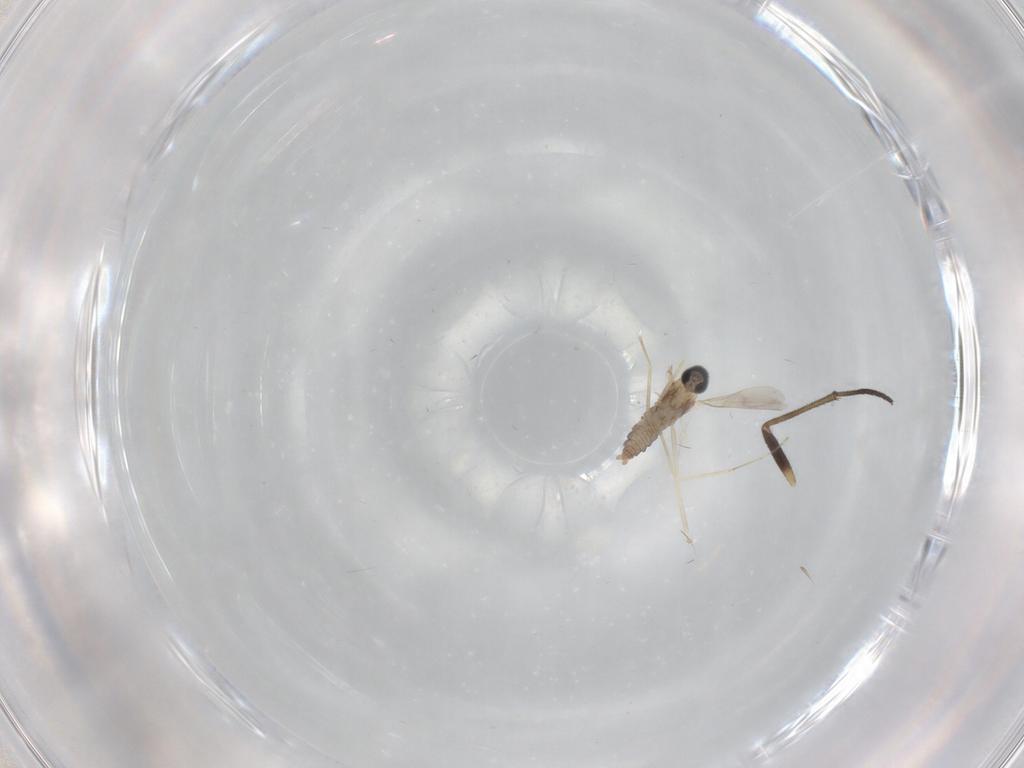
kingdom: Animalia
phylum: Arthropoda
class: Insecta
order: Diptera
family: Cecidomyiidae
